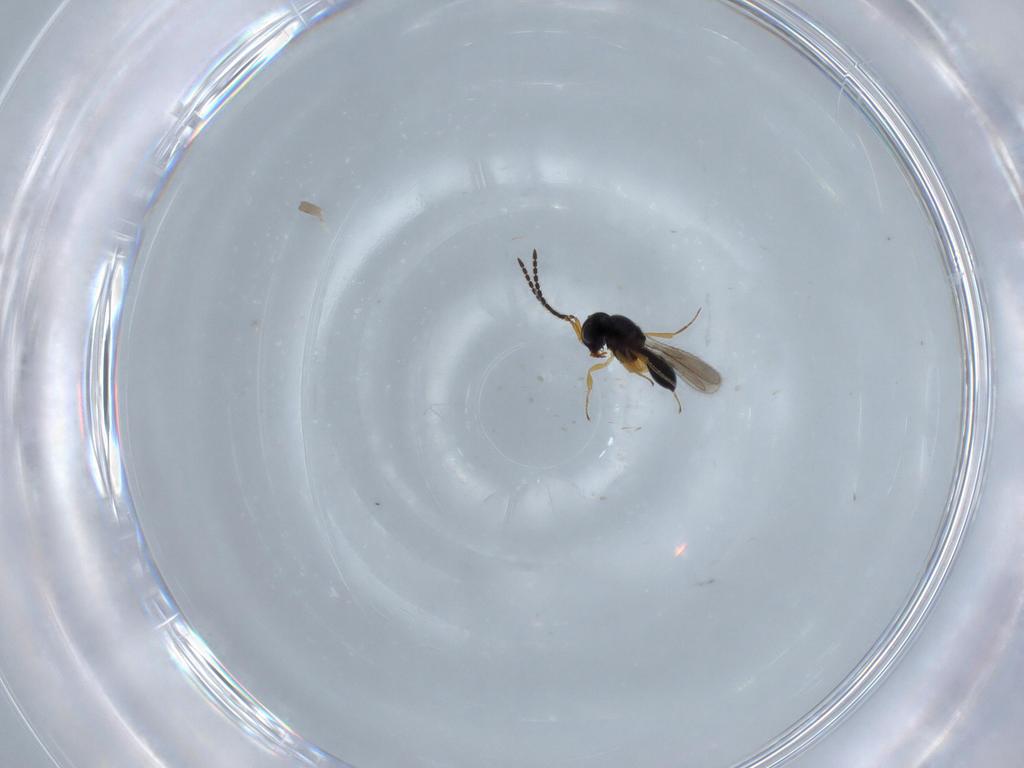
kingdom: Animalia
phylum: Arthropoda
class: Insecta
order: Hymenoptera
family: Scelionidae
